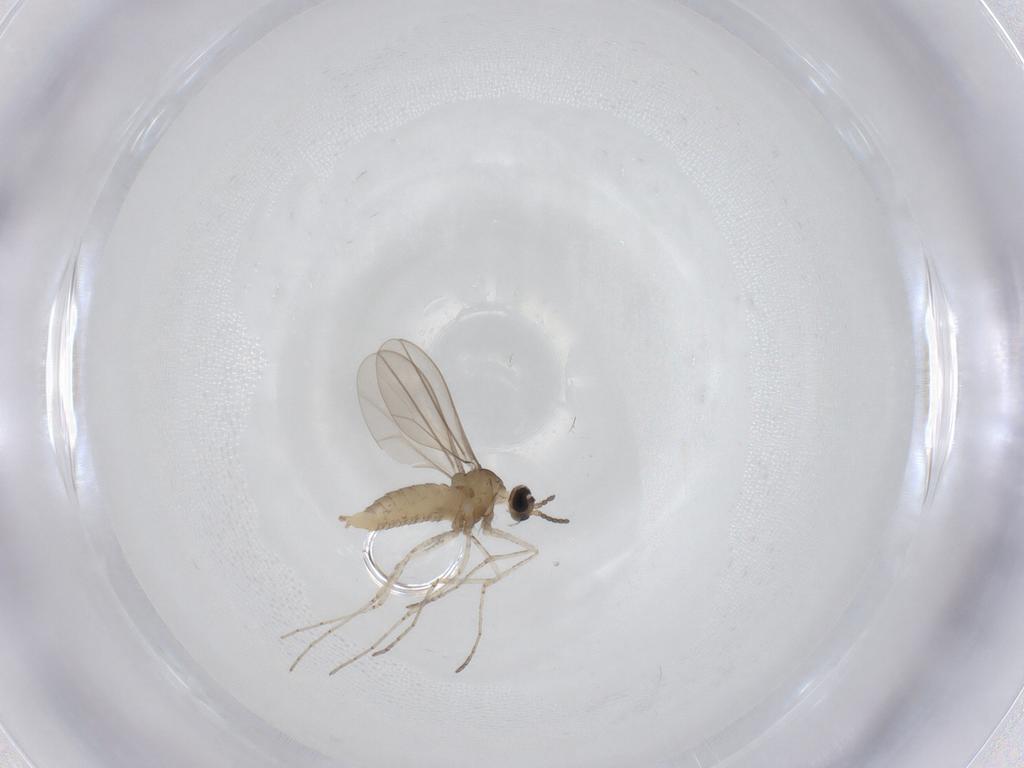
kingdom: Animalia
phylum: Arthropoda
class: Insecta
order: Diptera
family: Cecidomyiidae
